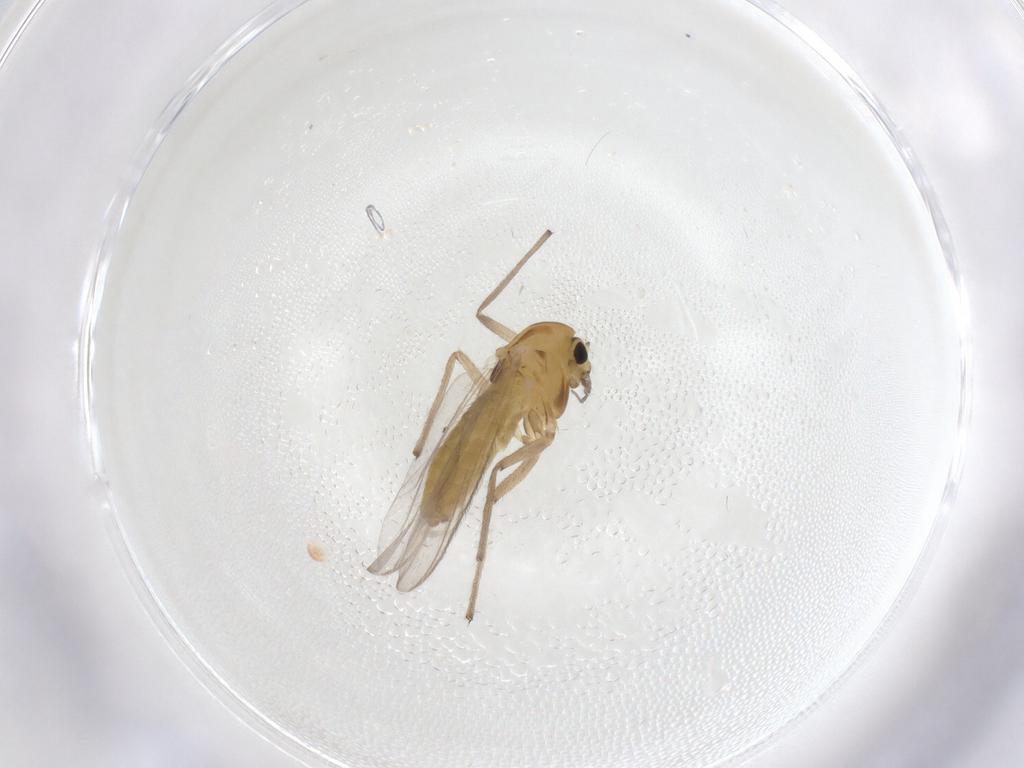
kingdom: Animalia
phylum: Arthropoda
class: Insecta
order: Diptera
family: Chironomidae
